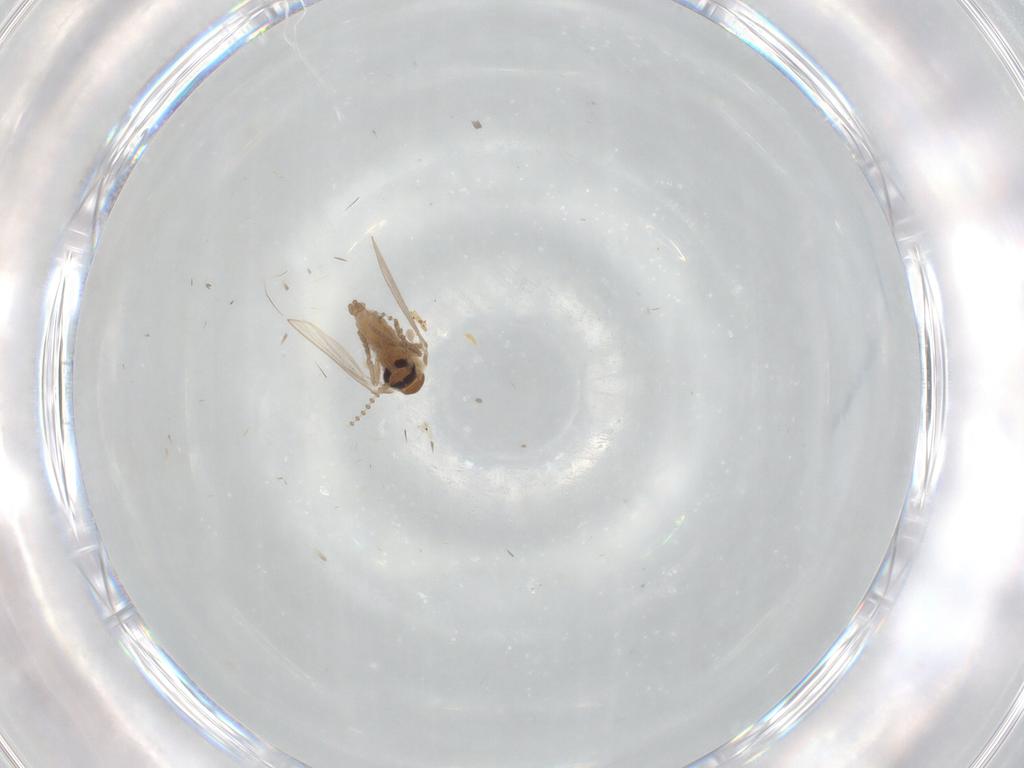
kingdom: Animalia
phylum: Arthropoda
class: Insecta
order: Diptera
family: Psychodidae
